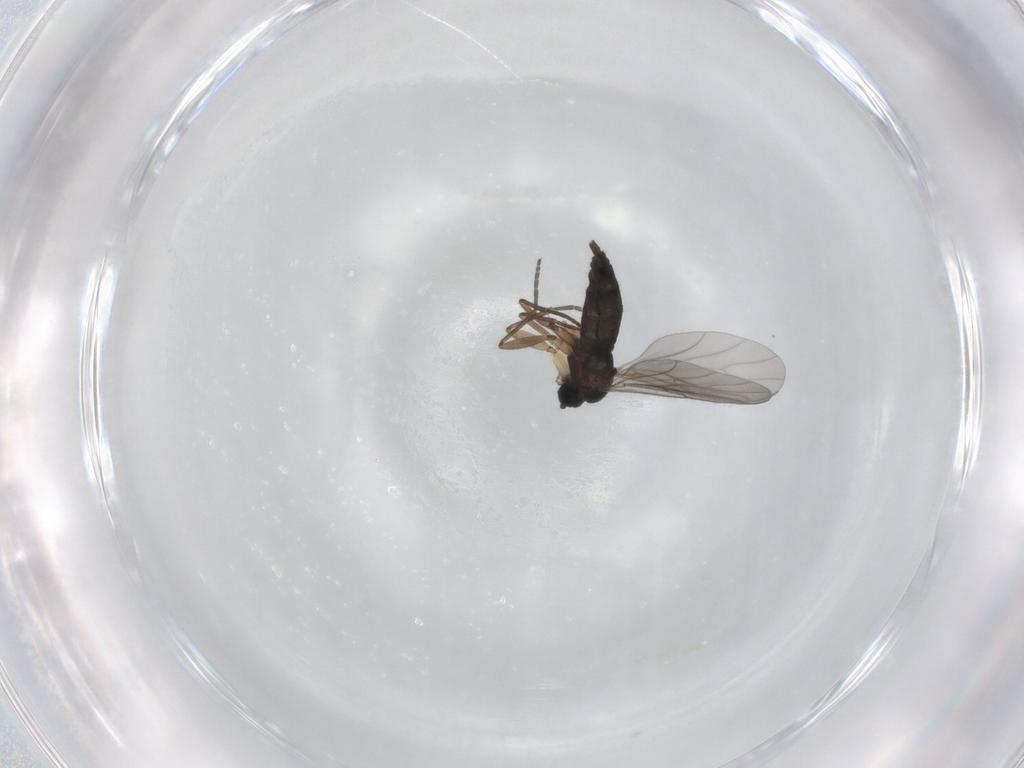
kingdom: Animalia
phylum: Arthropoda
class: Insecta
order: Diptera
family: Sciaridae
